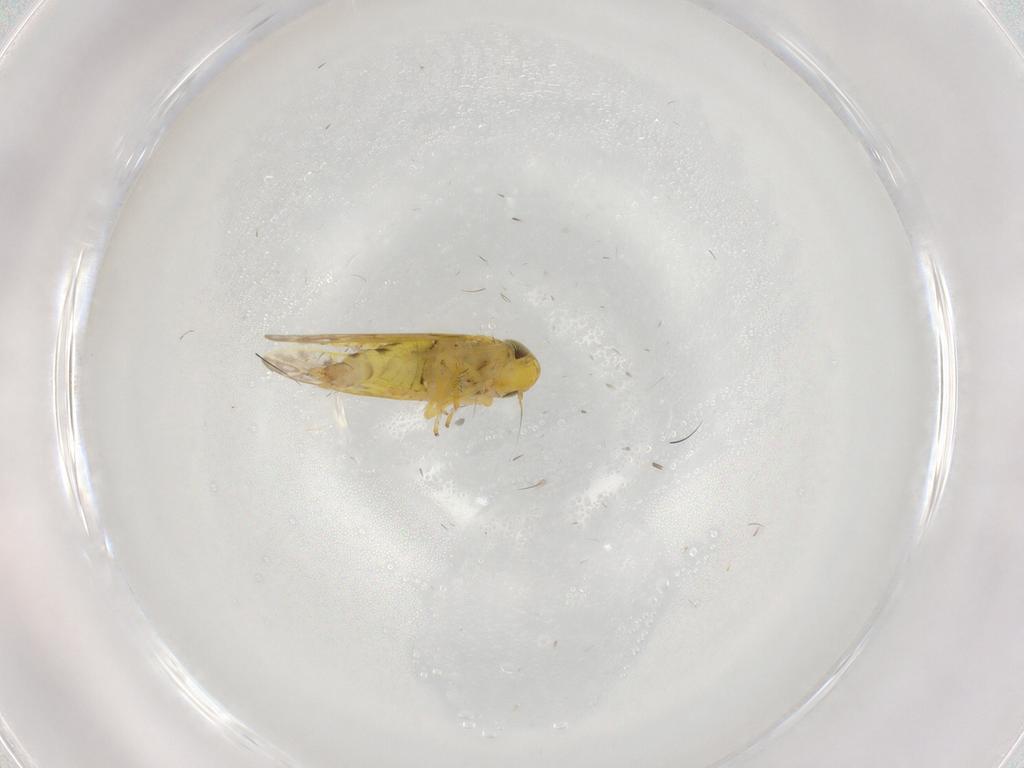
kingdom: Animalia
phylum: Arthropoda
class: Insecta
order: Hemiptera
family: Cicadellidae
